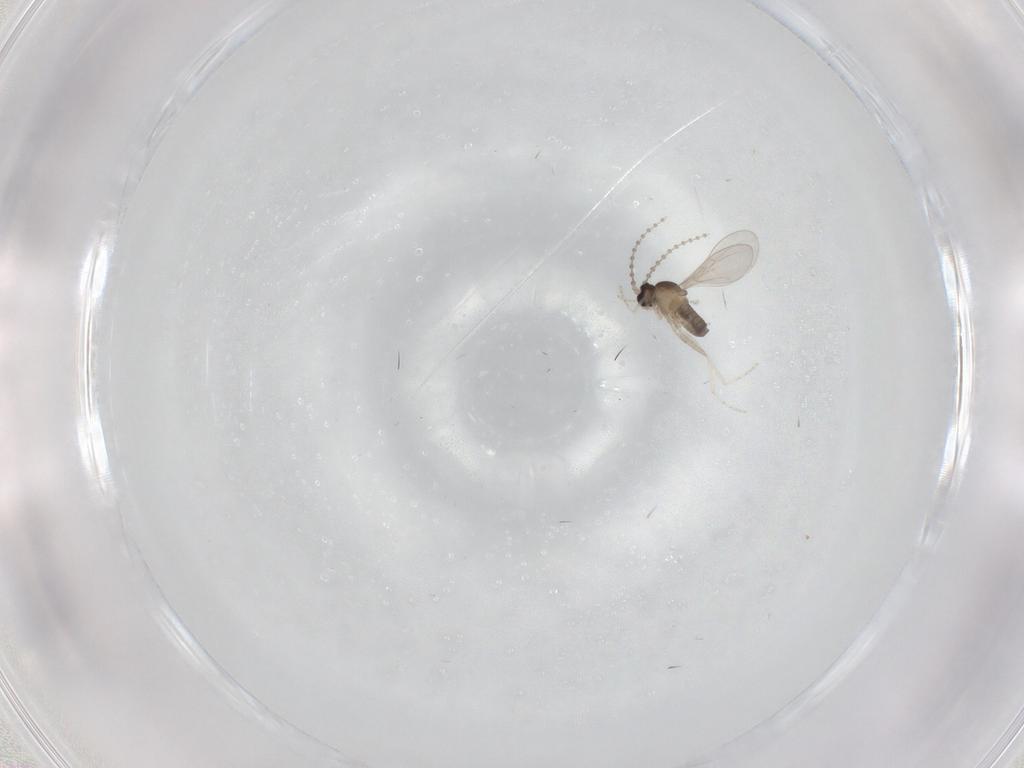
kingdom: Animalia
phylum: Arthropoda
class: Insecta
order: Diptera
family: Cecidomyiidae
